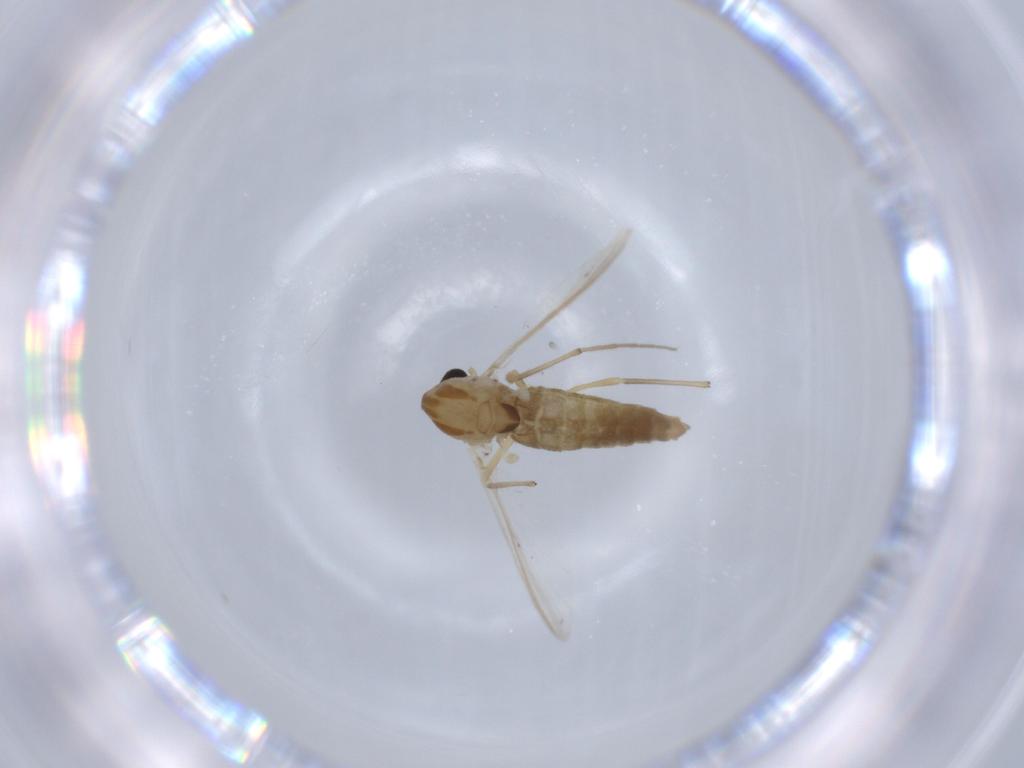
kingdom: Animalia
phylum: Arthropoda
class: Insecta
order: Diptera
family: Chironomidae
